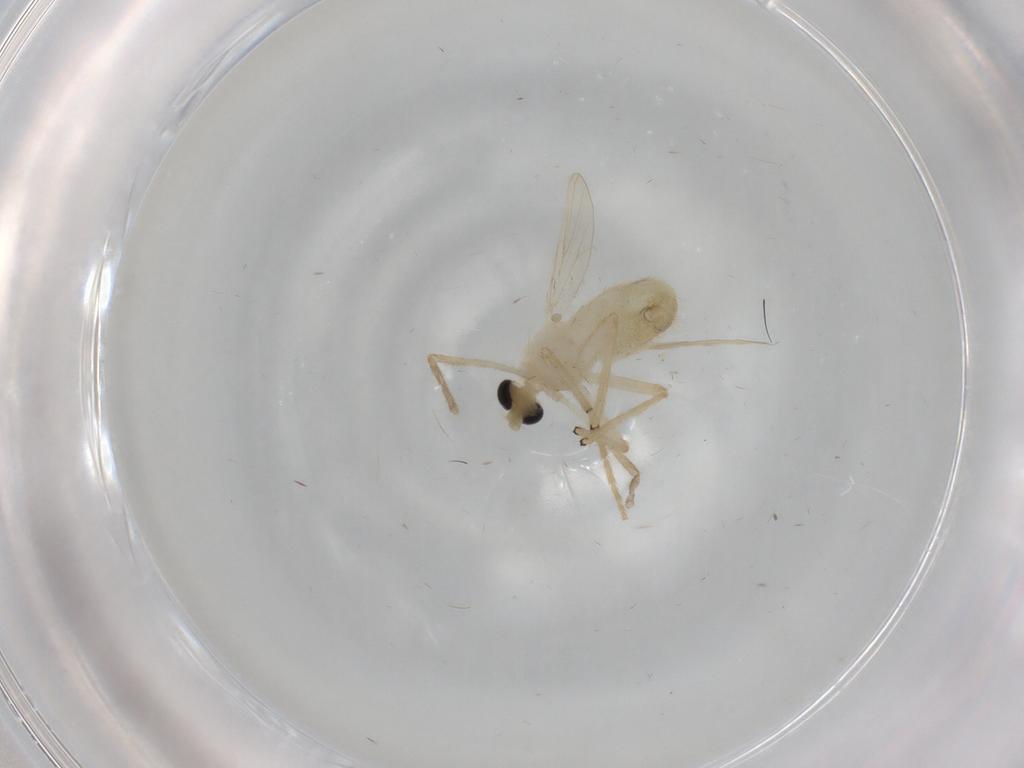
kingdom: Animalia
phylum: Arthropoda
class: Insecta
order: Diptera
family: Chironomidae
